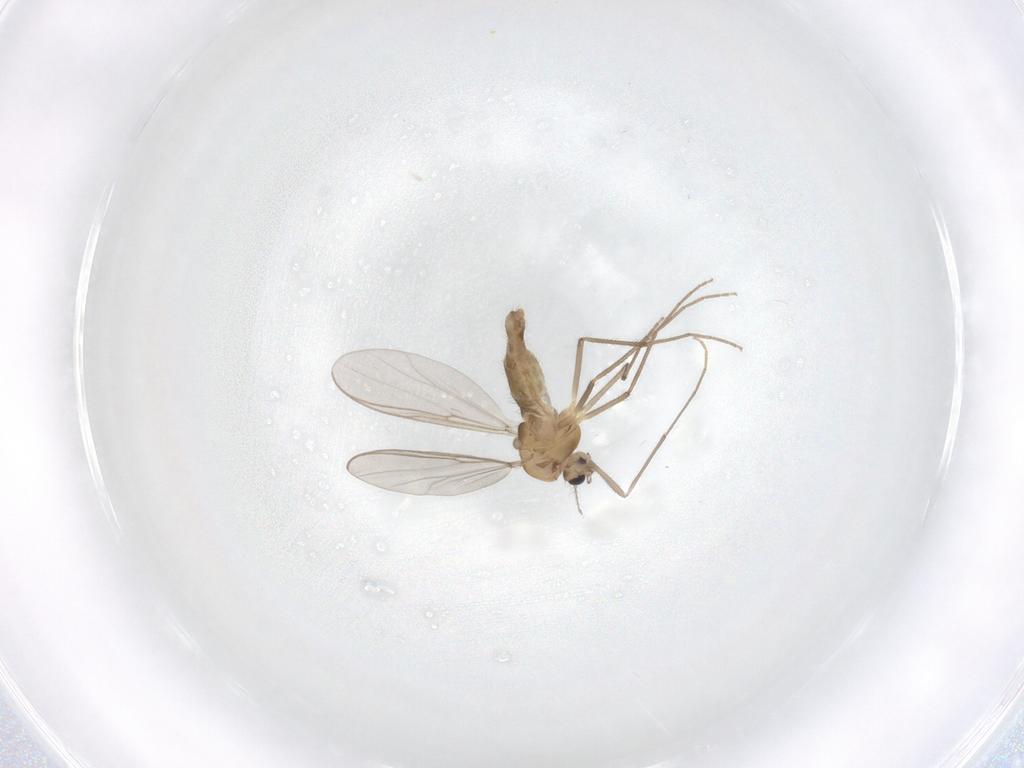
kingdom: Animalia
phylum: Arthropoda
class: Insecta
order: Diptera
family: Chironomidae
